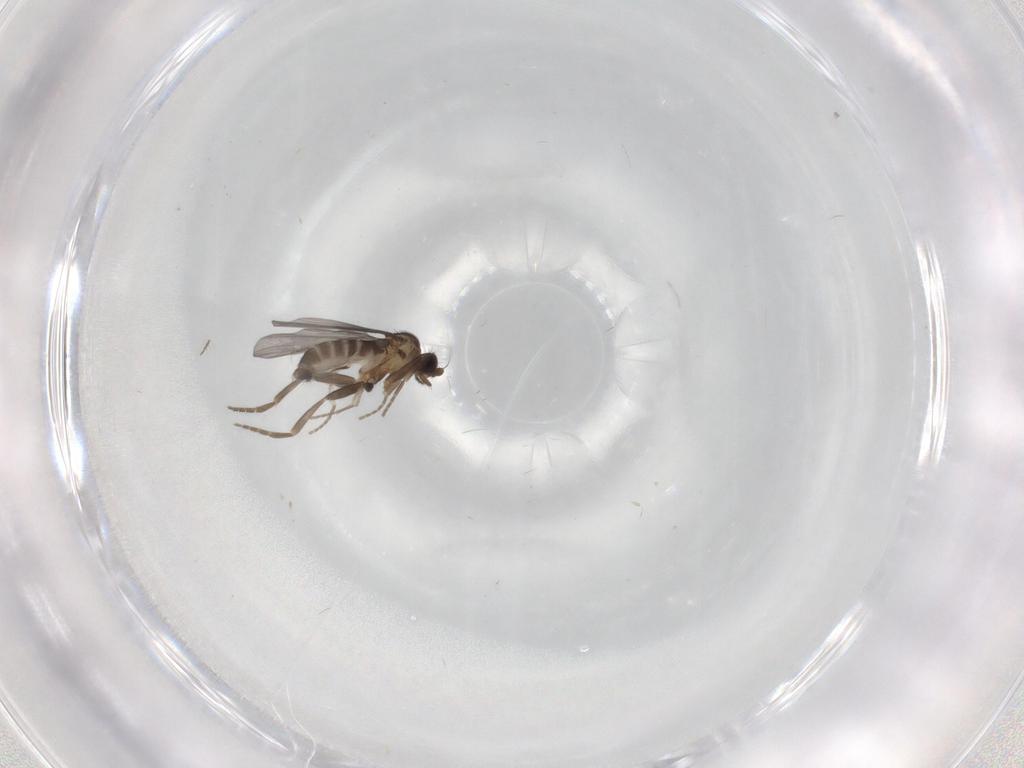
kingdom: Animalia
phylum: Arthropoda
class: Insecta
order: Diptera
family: Phoridae
